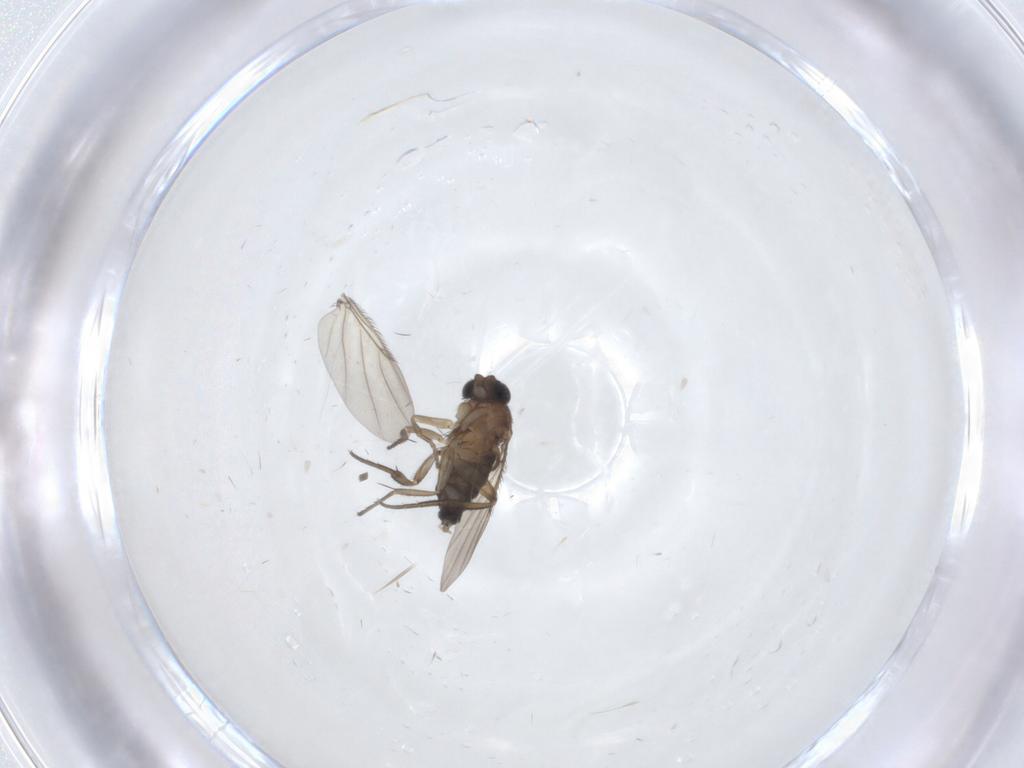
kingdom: Animalia
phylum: Arthropoda
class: Insecta
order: Diptera
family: Phoridae
